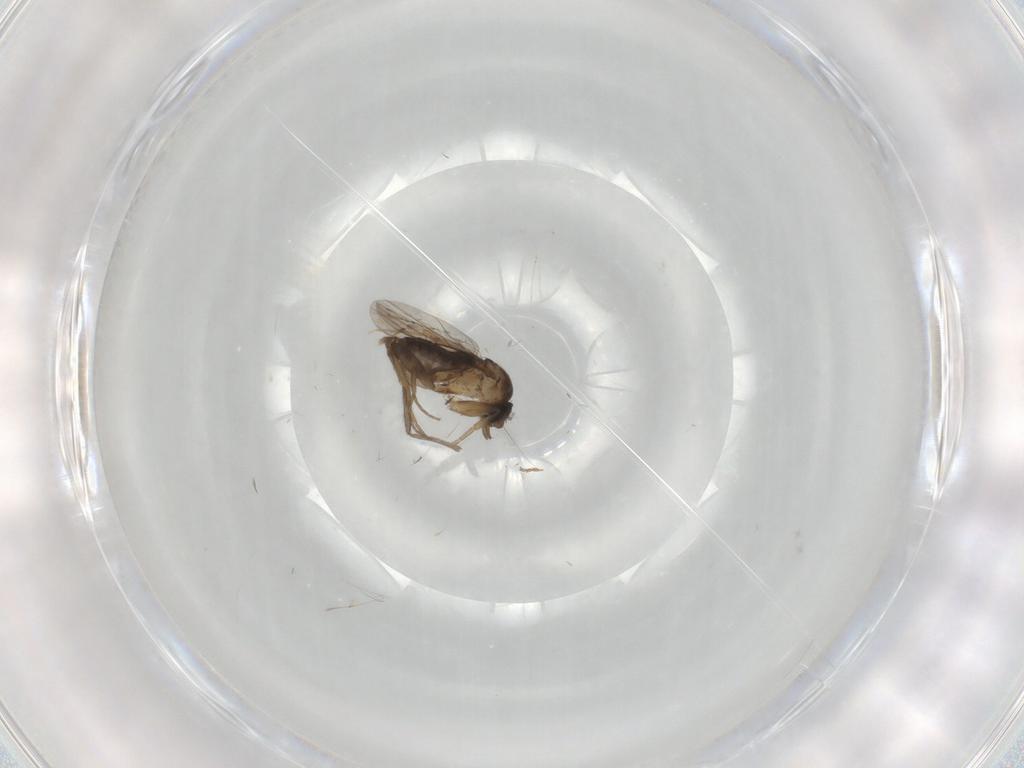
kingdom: Animalia
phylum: Arthropoda
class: Insecta
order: Diptera
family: Phoridae
